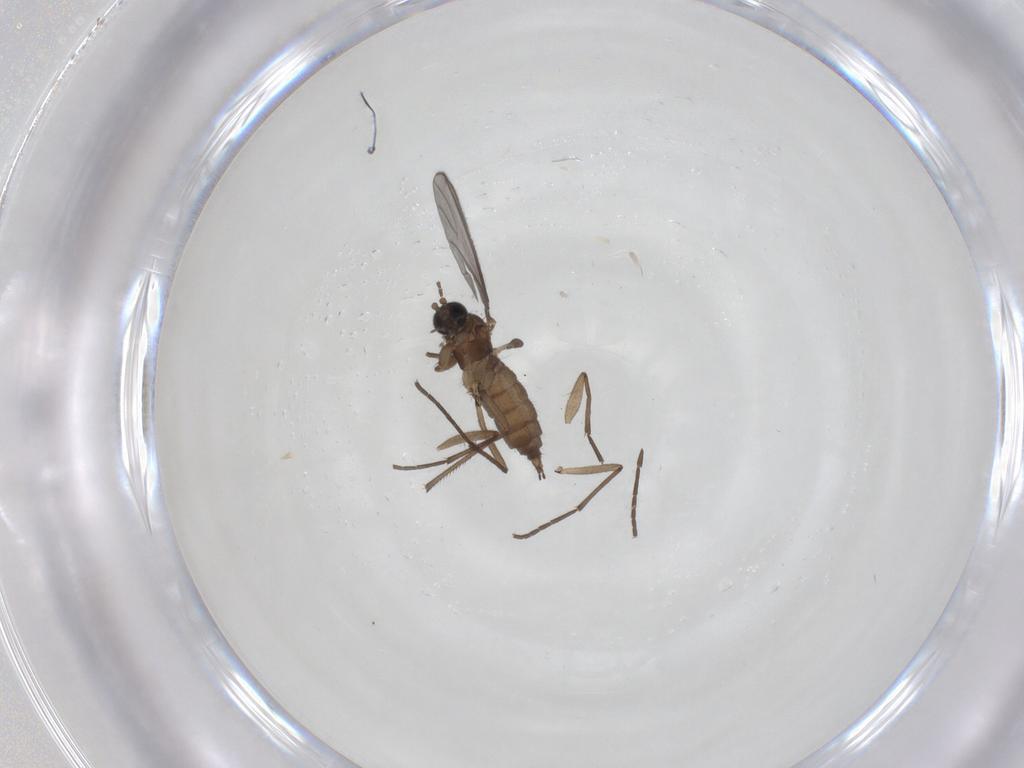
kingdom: Animalia
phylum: Arthropoda
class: Insecta
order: Diptera
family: Sciaridae
